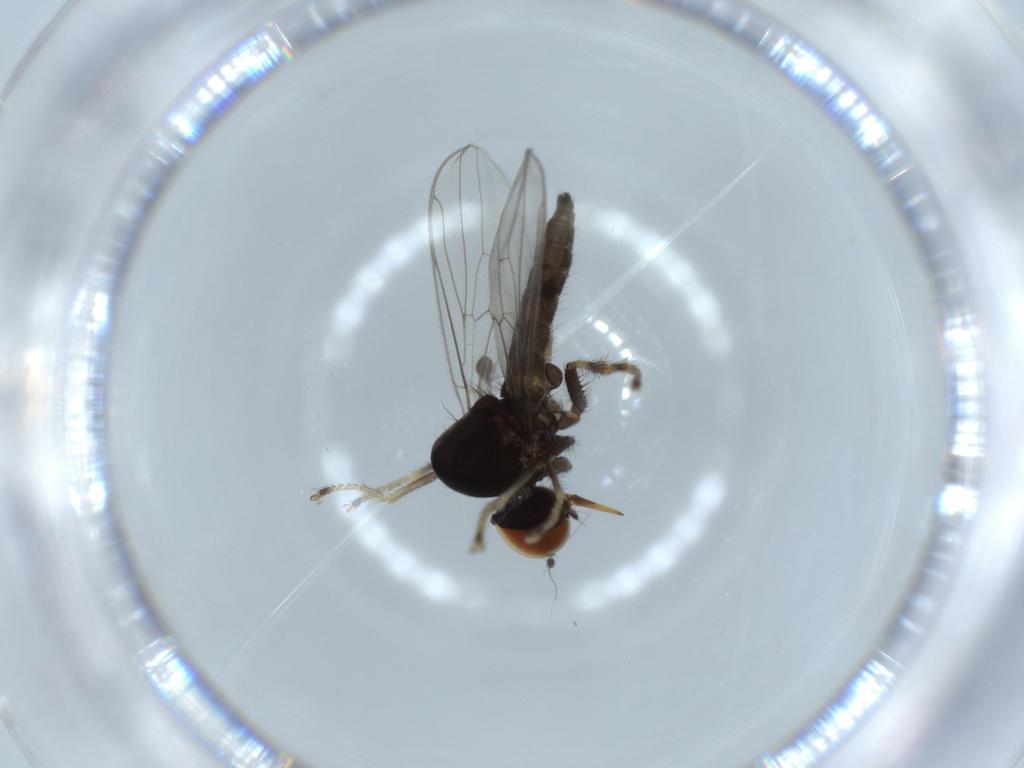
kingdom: Animalia
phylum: Arthropoda
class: Insecta
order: Diptera
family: Hybotidae
